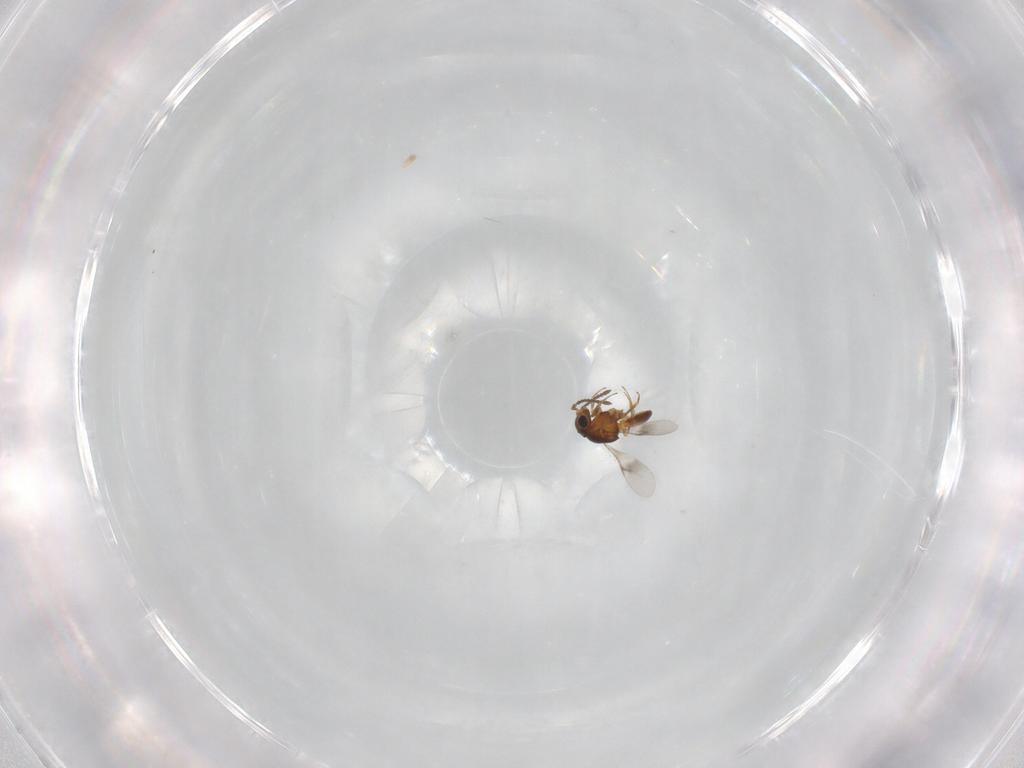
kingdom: Animalia
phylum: Arthropoda
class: Insecta
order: Hymenoptera
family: Scelionidae
